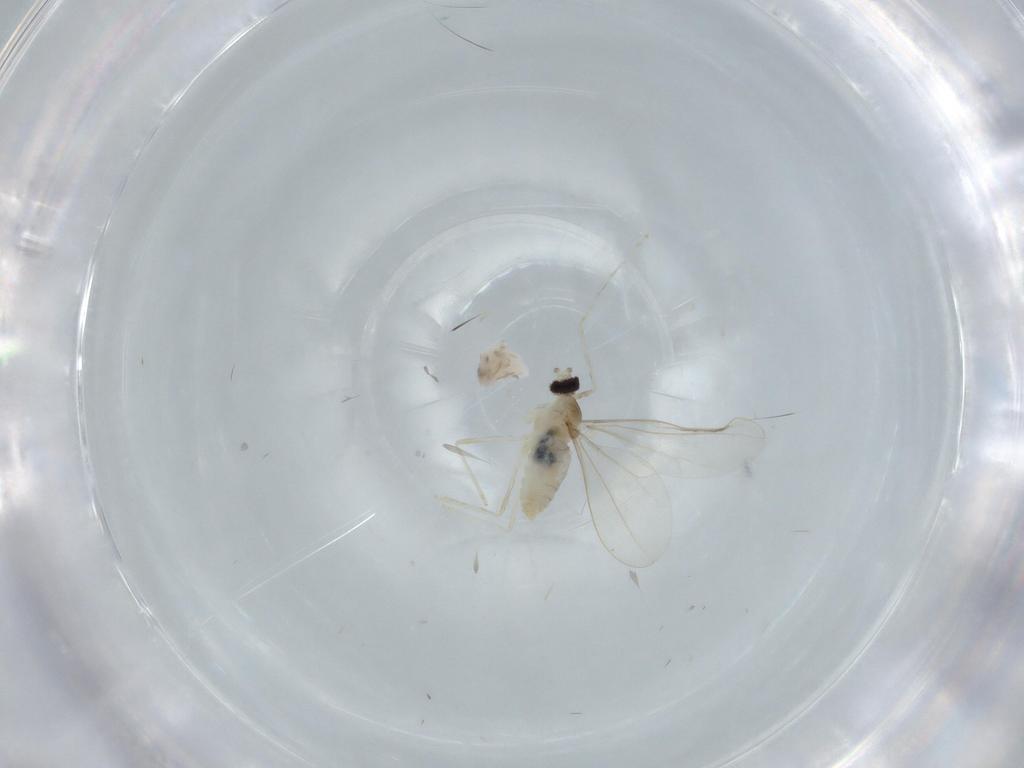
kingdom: Animalia
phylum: Arthropoda
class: Insecta
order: Diptera
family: Cecidomyiidae
